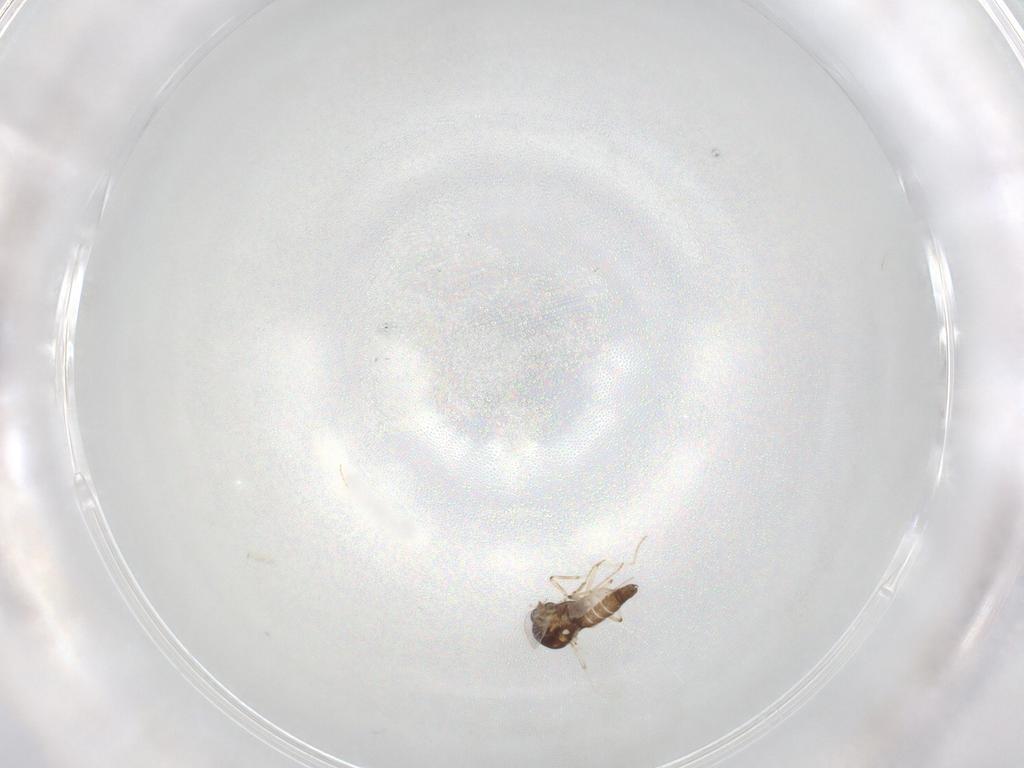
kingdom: Animalia
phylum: Arthropoda
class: Insecta
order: Diptera
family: Ceratopogonidae
